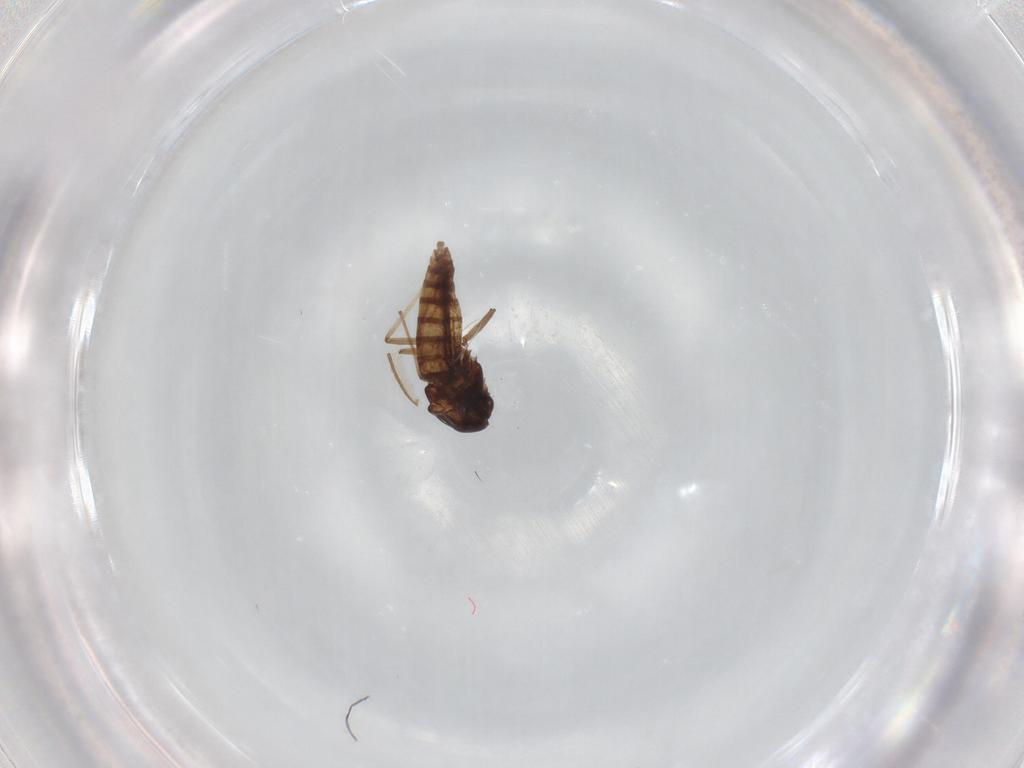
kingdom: Animalia
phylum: Arthropoda
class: Insecta
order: Diptera
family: Chironomidae
